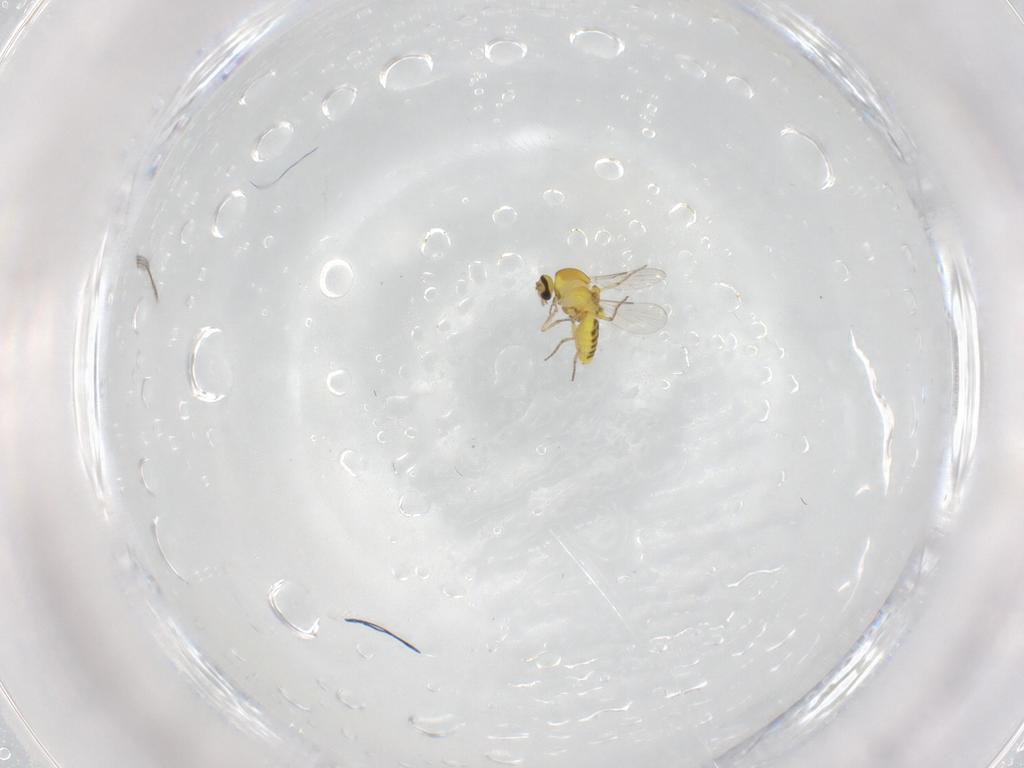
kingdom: Animalia
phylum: Arthropoda
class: Insecta
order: Diptera
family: Ceratopogonidae
